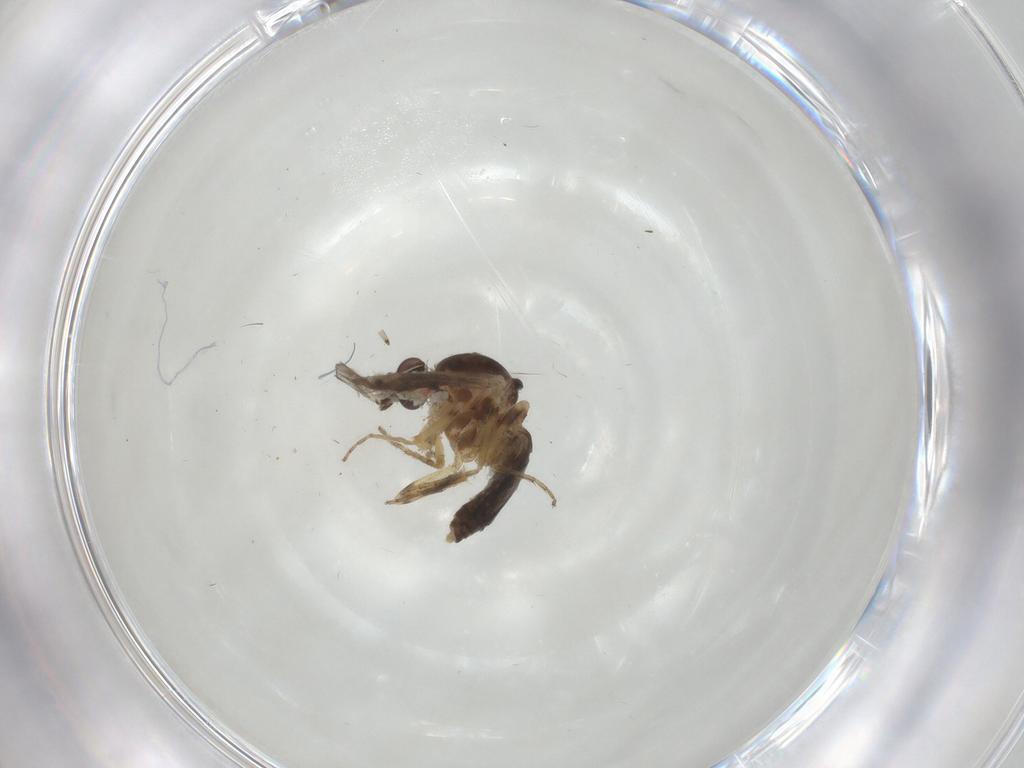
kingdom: Animalia
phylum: Arthropoda
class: Insecta
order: Diptera
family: Ceratopogonidae
